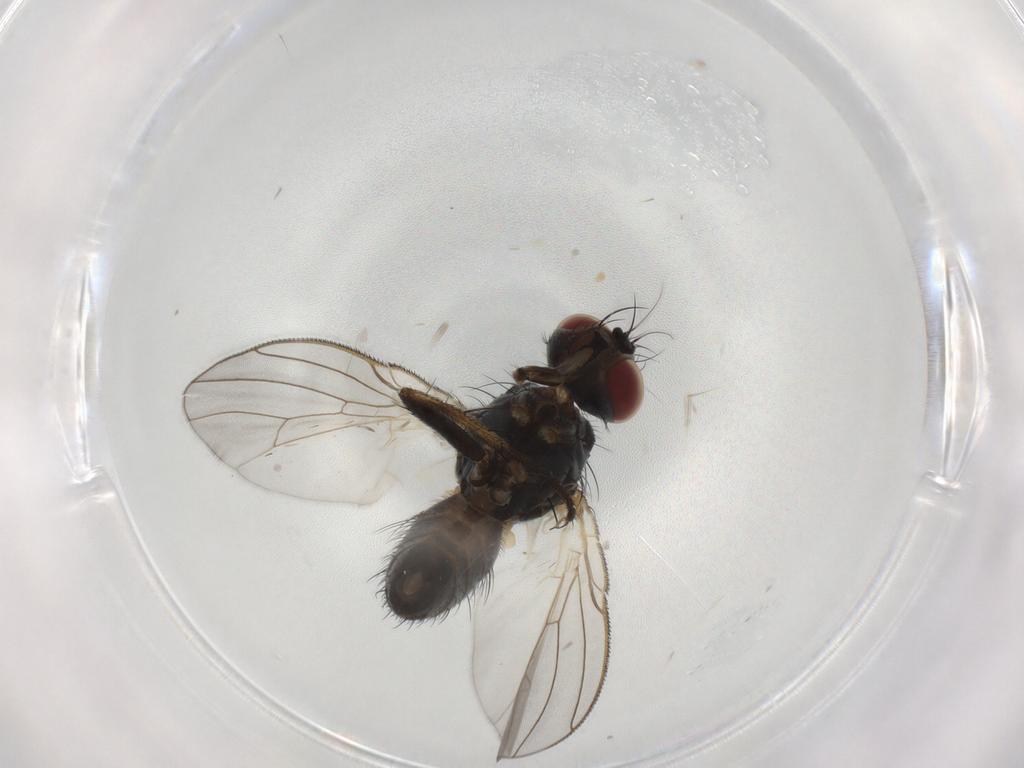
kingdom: Animalia
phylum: Arthropoda
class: Insecta
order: Diptera
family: Muscidae
